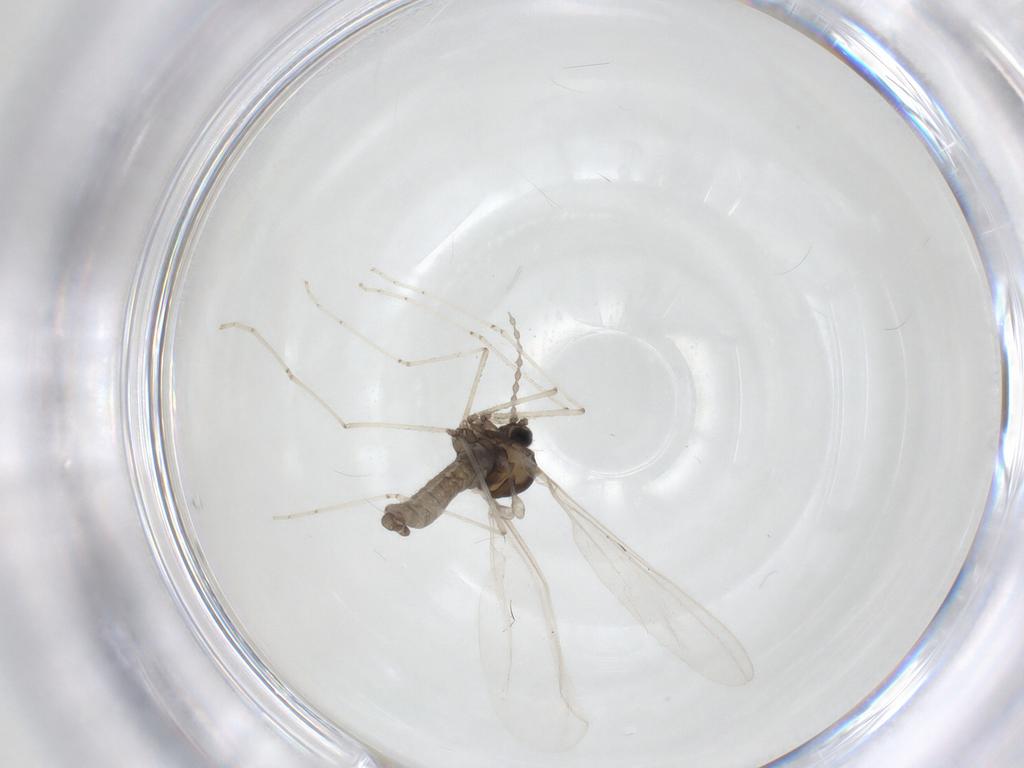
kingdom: Animalia
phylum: Arthropoda
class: Insecta
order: Diptera
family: Cecidomyiidae
